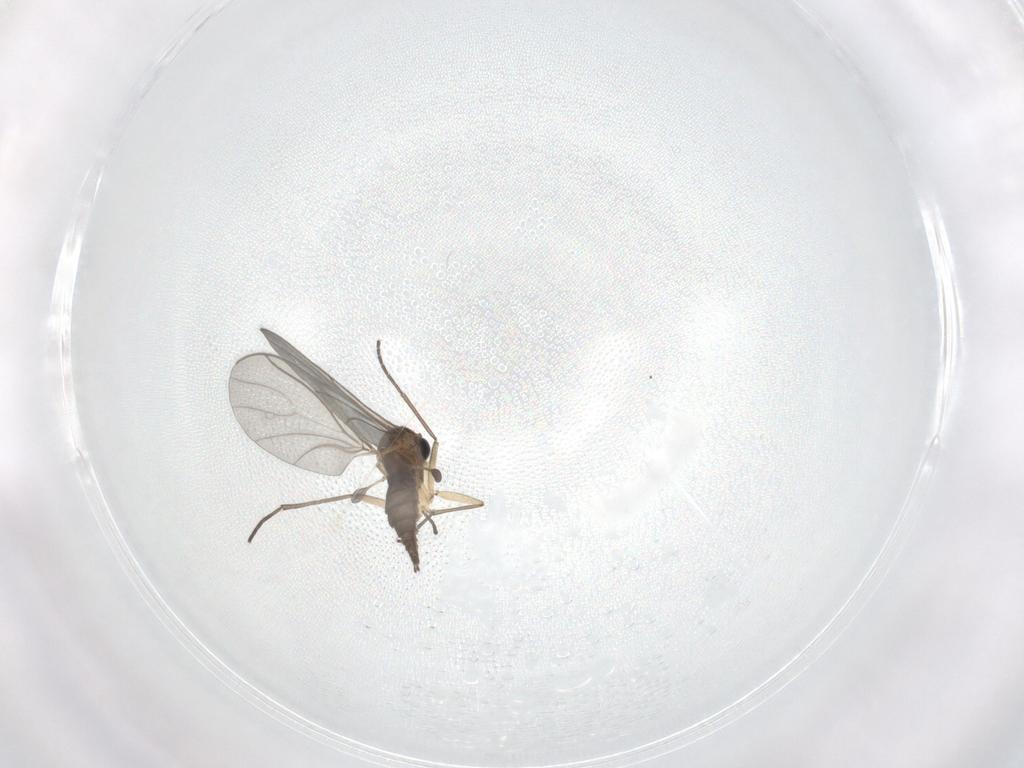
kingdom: Animalia
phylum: Arthropoda
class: Insecta
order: Diptera
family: Sciaridae
